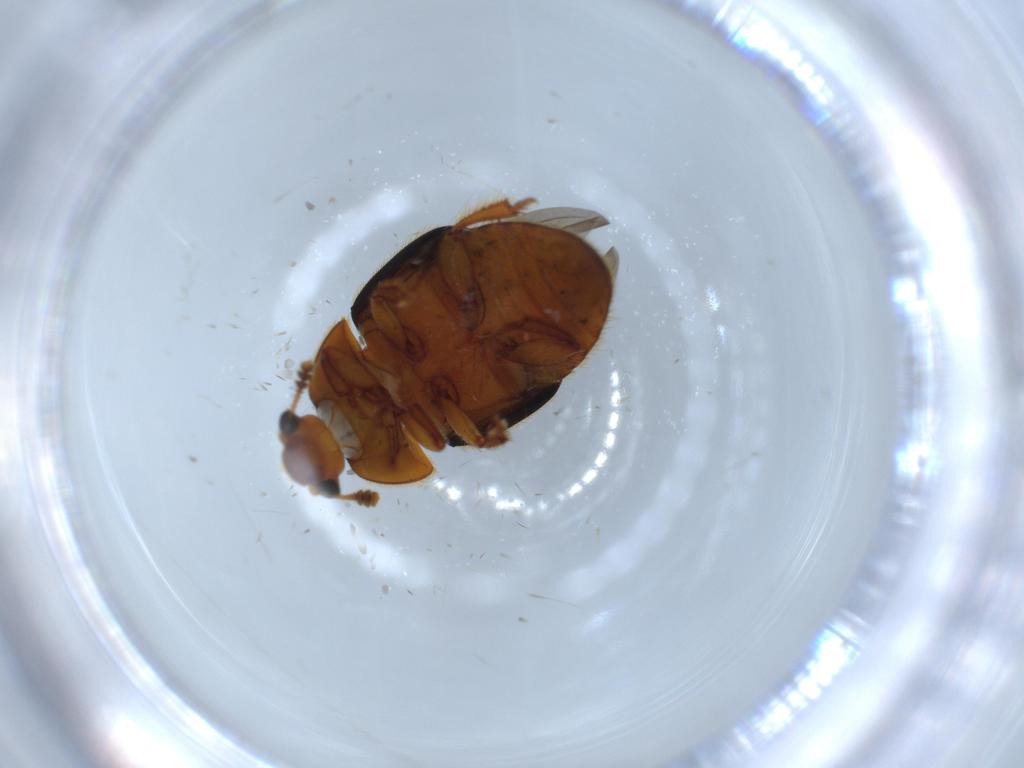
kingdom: Animalia
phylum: Arthropoda
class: Insecta
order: Coleoptera
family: Nitidulidae
